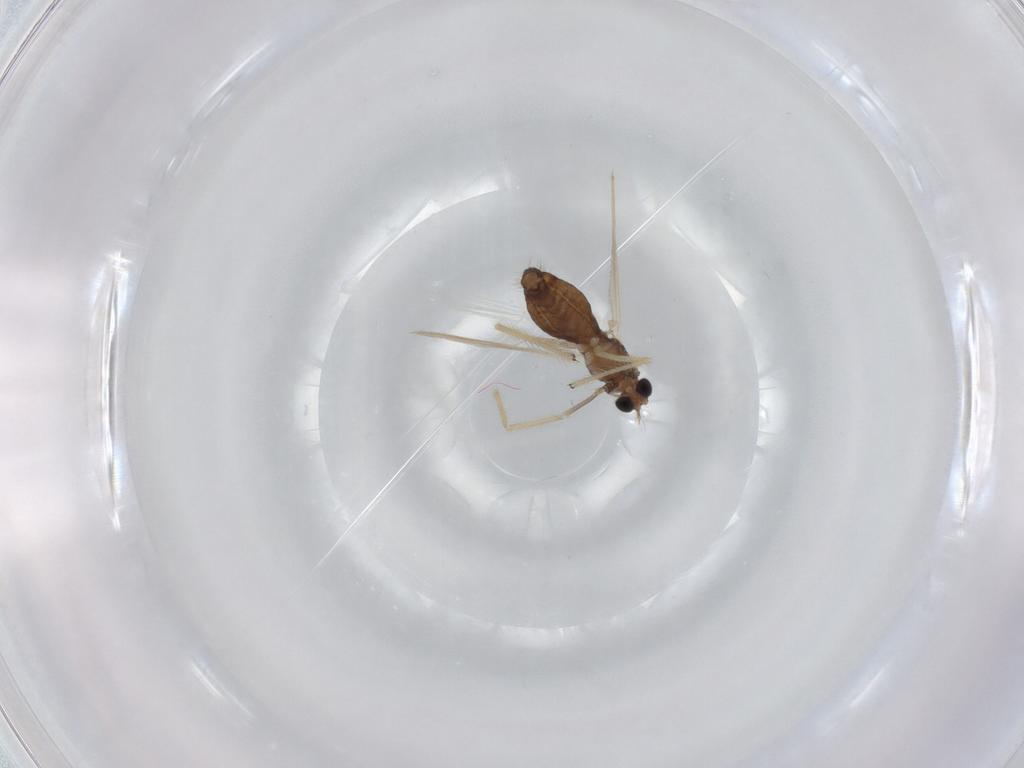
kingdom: Animalia
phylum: Arthropoda
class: Insecta
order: Diptera
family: Chironomidae
